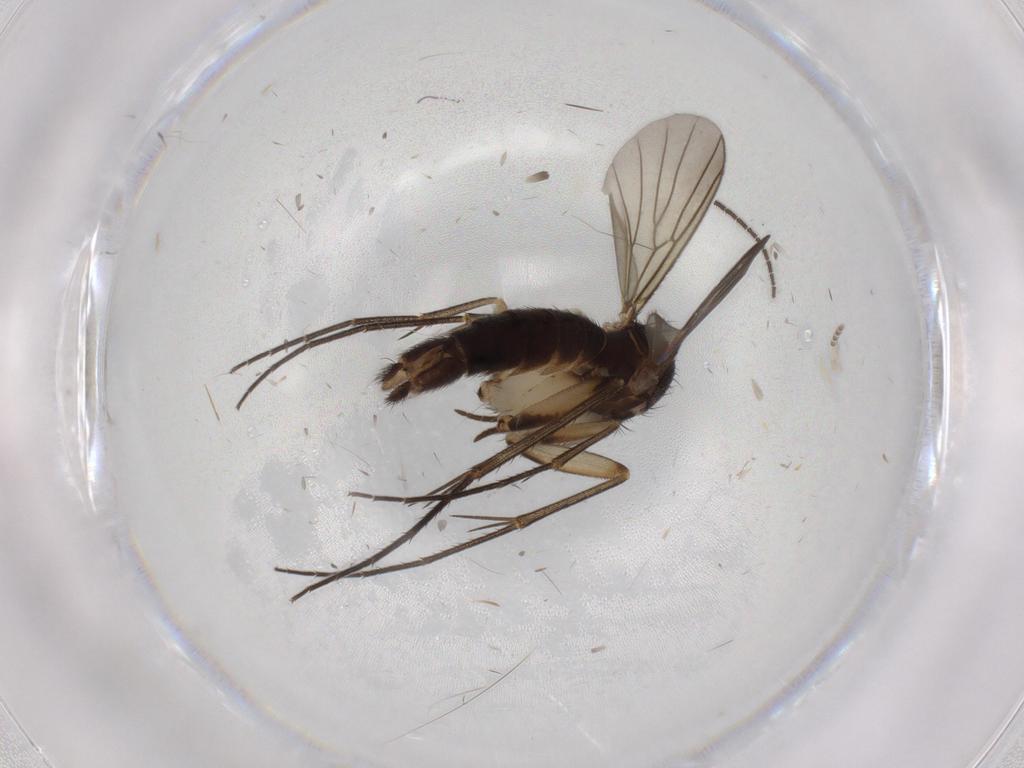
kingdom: Animalia
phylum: Arthropoda
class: Insecta
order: Diptera
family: Mycetophilidae
